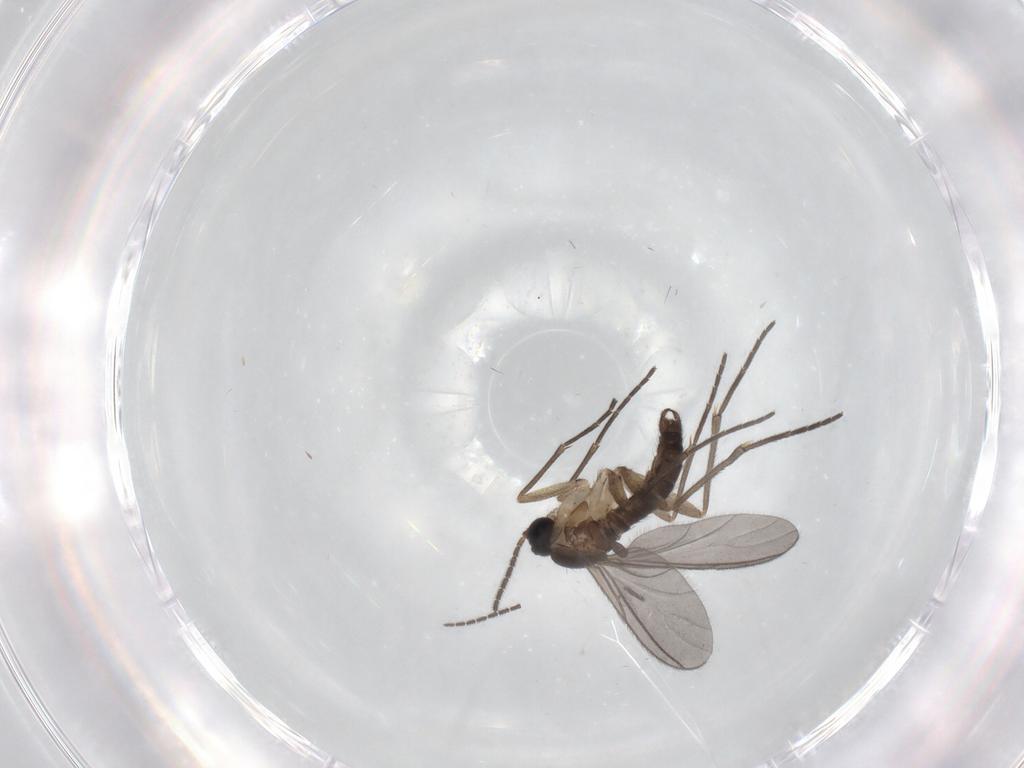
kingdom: Animalia
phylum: Arthropoda
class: Insecta
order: Diptera
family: Sciaridae
